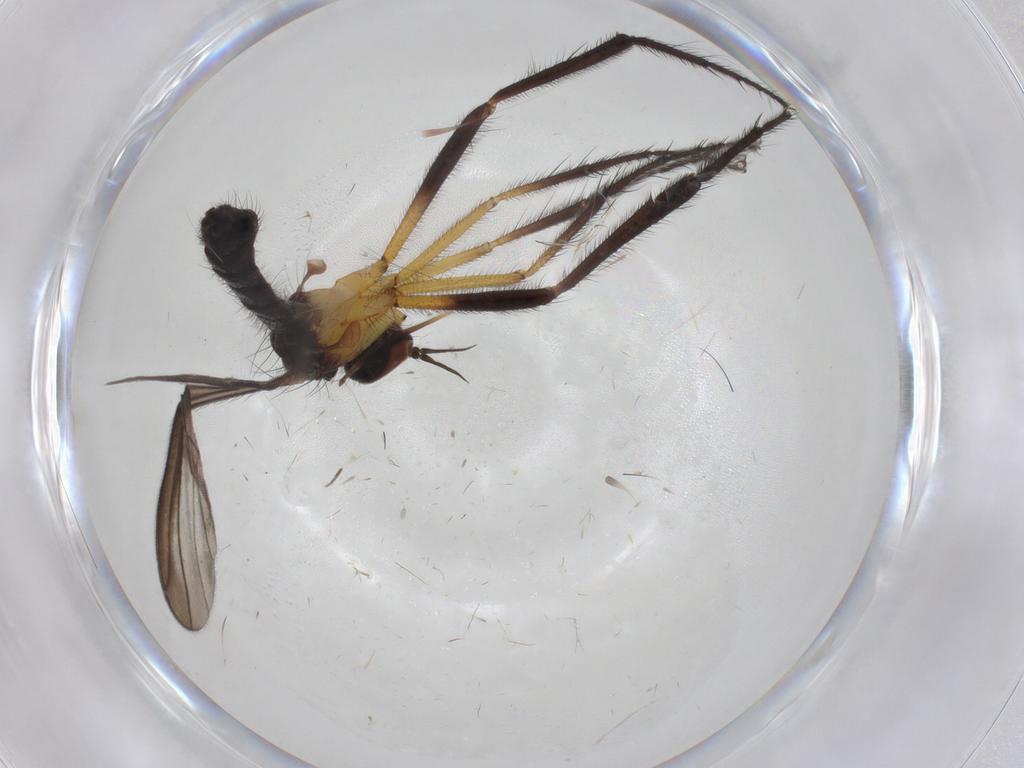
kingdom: Animalia
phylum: Arthropoda
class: Insecta
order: Diptera
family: Empididae
